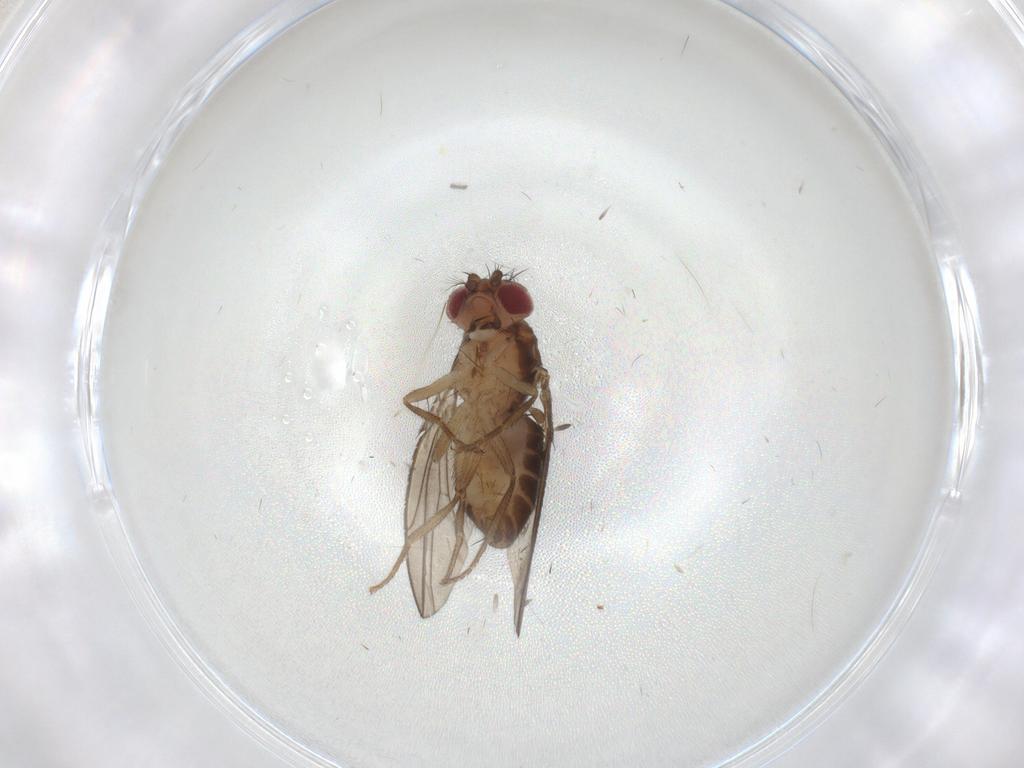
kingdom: Animalia
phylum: Arthropoda
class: Insecta
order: Diptera
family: Drosophilidae
